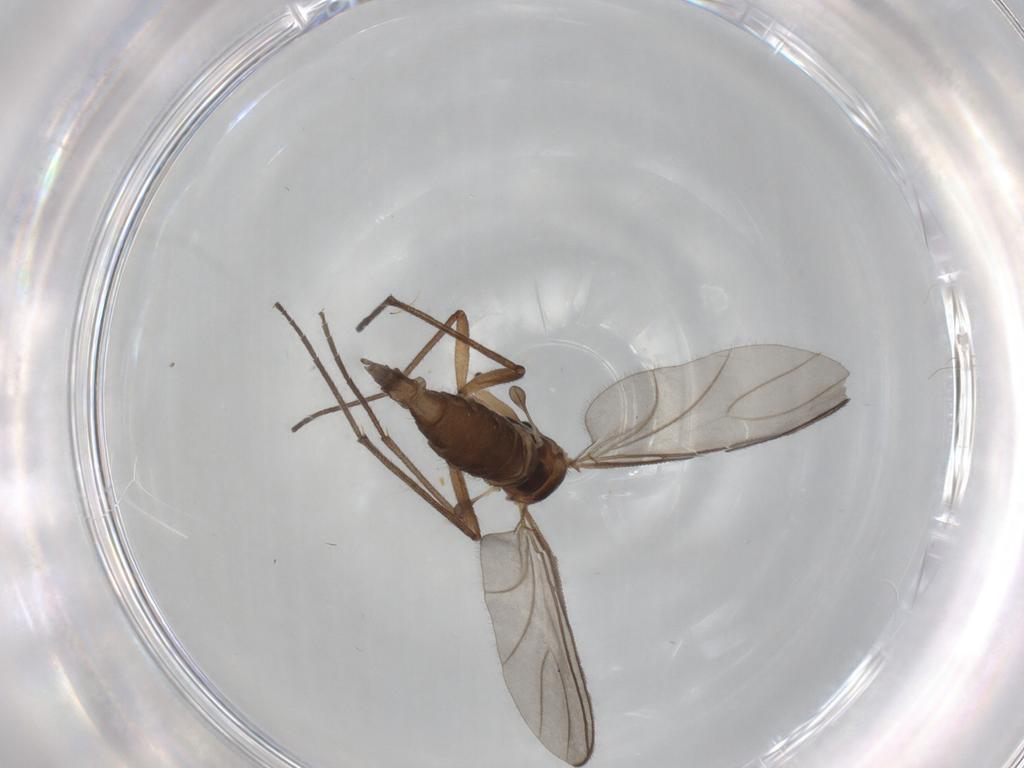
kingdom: Animalia
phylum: Arthropoda
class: Insecta
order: Diptera
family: Sciaridae
